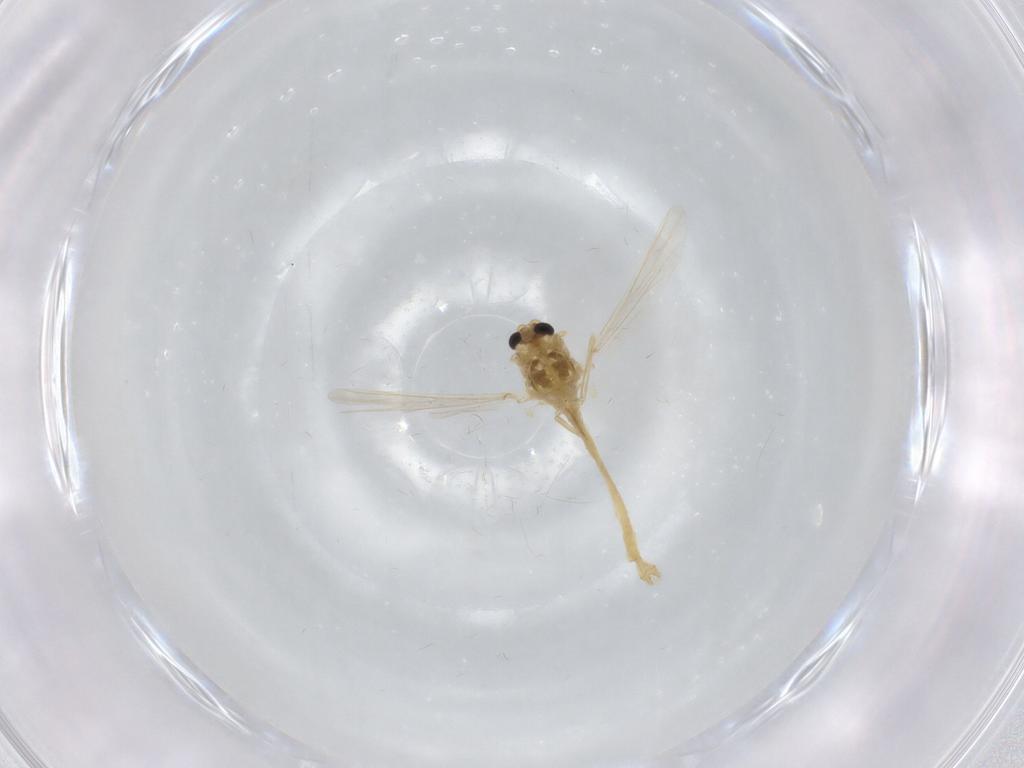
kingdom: Animalia
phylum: Arthropoda
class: Insecta
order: Diptera
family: Chironomidae
